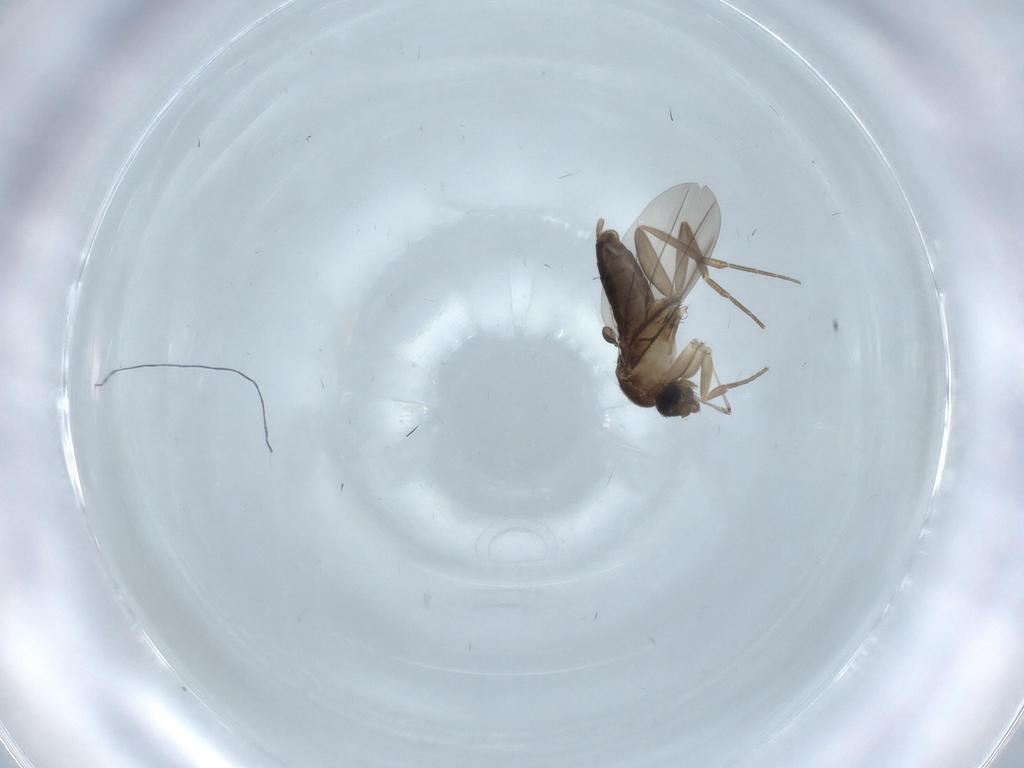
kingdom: Animalia
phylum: Arthropoda
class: Insecta
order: Diptera
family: Chironomidae
